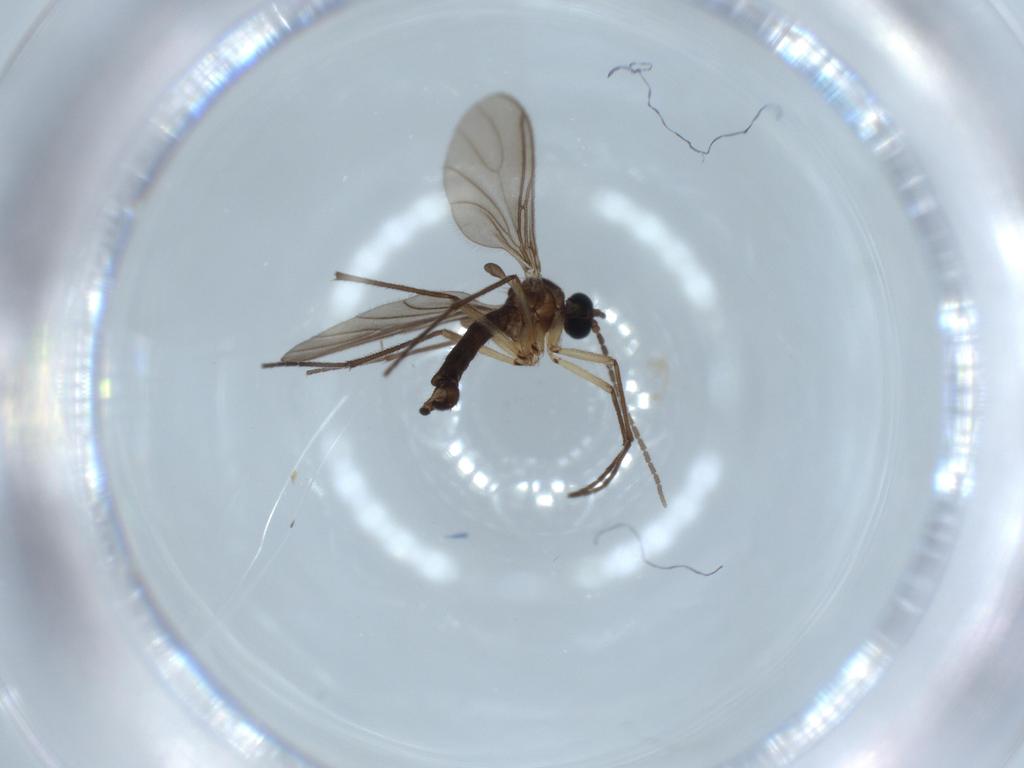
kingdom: Animalia
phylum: Arthropoda
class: Insecta
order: Diptera
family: Sciaridae
